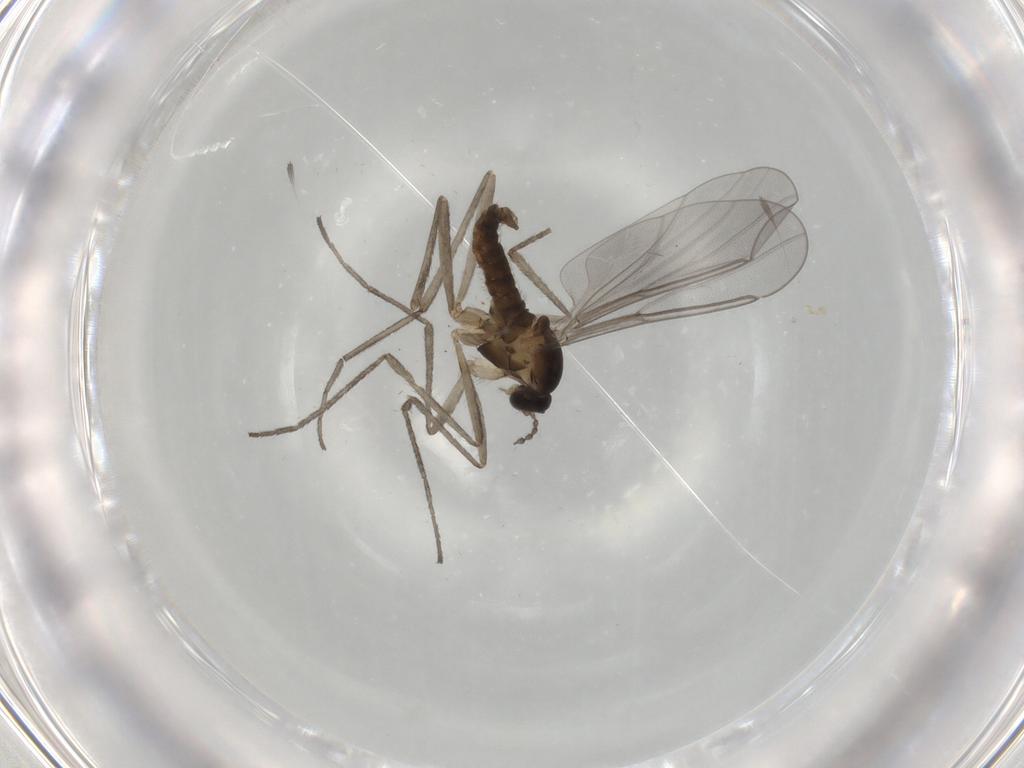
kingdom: Animalia
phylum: Arthropoda
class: Insecta
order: Diptera
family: Cecidomyiidae
